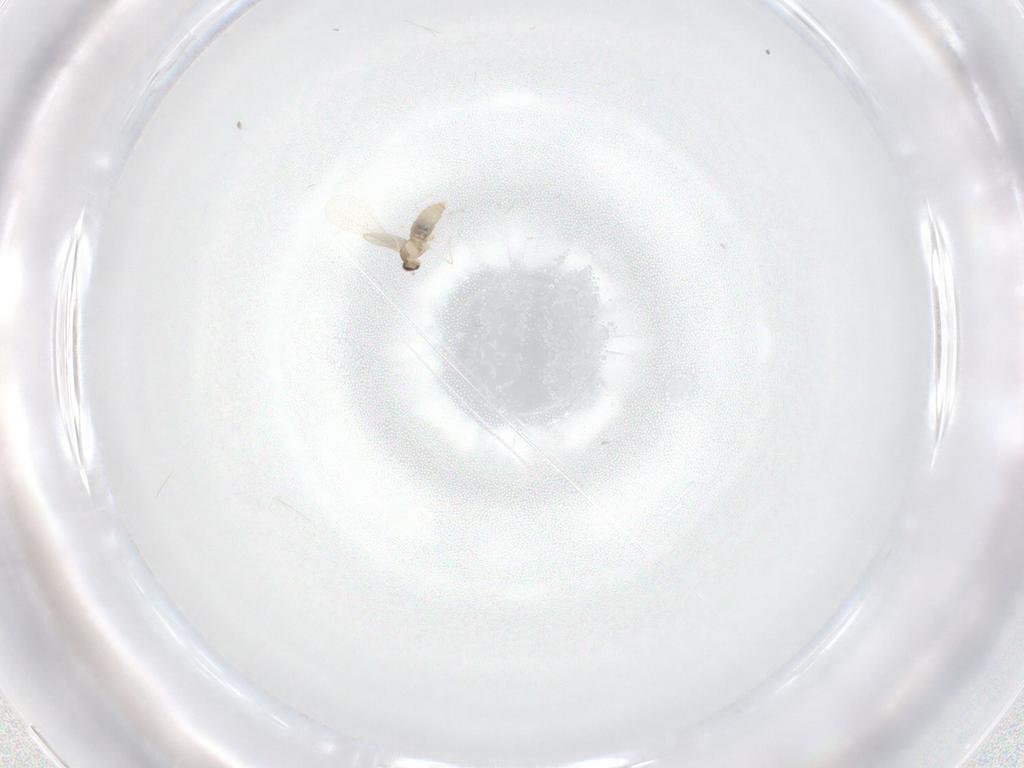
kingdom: Animalia
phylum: Arthropoda
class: Insecta
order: Diptera
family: Cecidomyiidae
